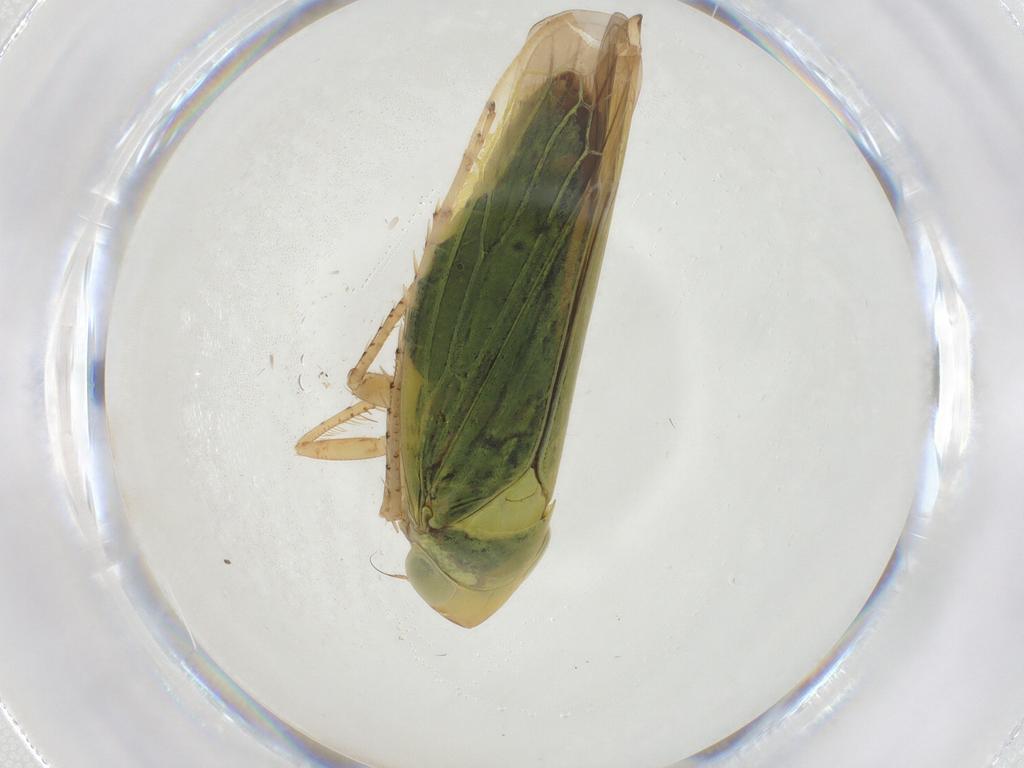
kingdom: Animalia
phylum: Arthropoda
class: Insecta
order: Hemiptera
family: Miridae
